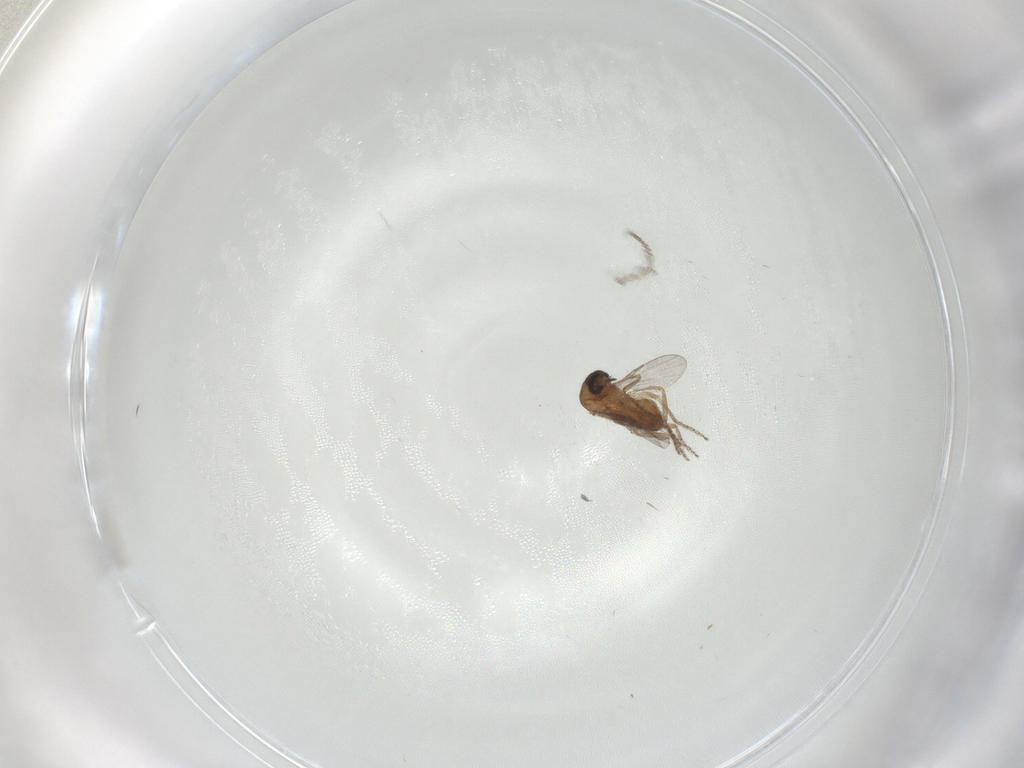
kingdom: Animalia
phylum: Arthropoda
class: Insecta
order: Diptera
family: Ceratopogonidae
